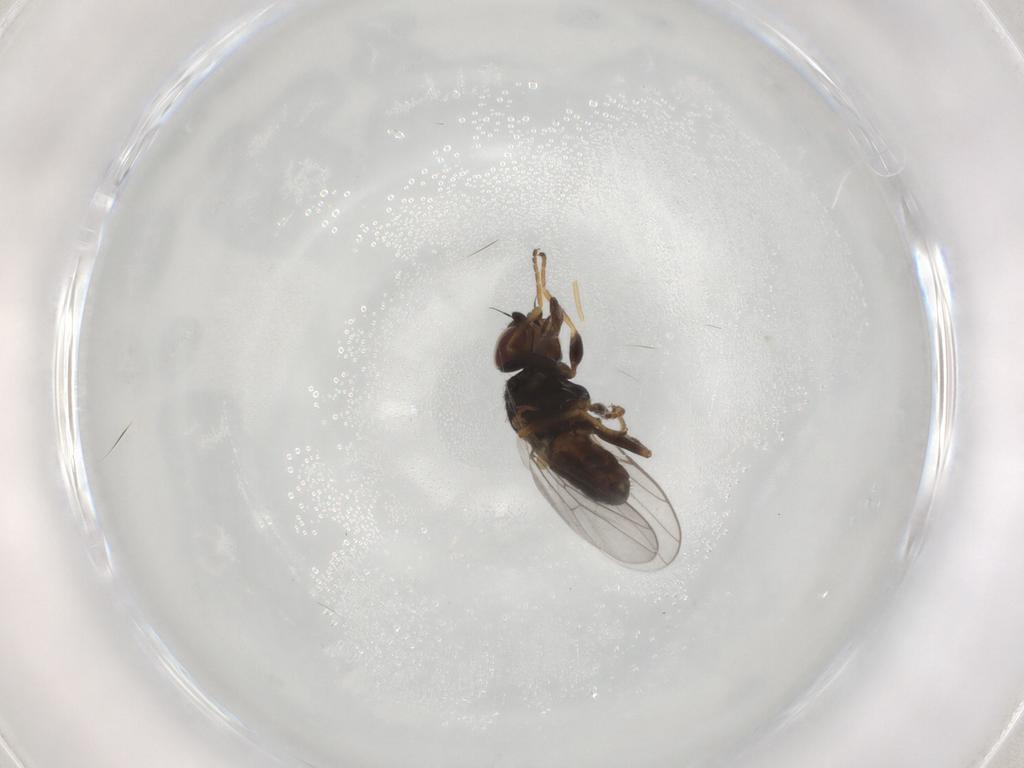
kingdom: Animalia
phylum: Arthropoda
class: Insecta
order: Diptera
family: Chloropidae
